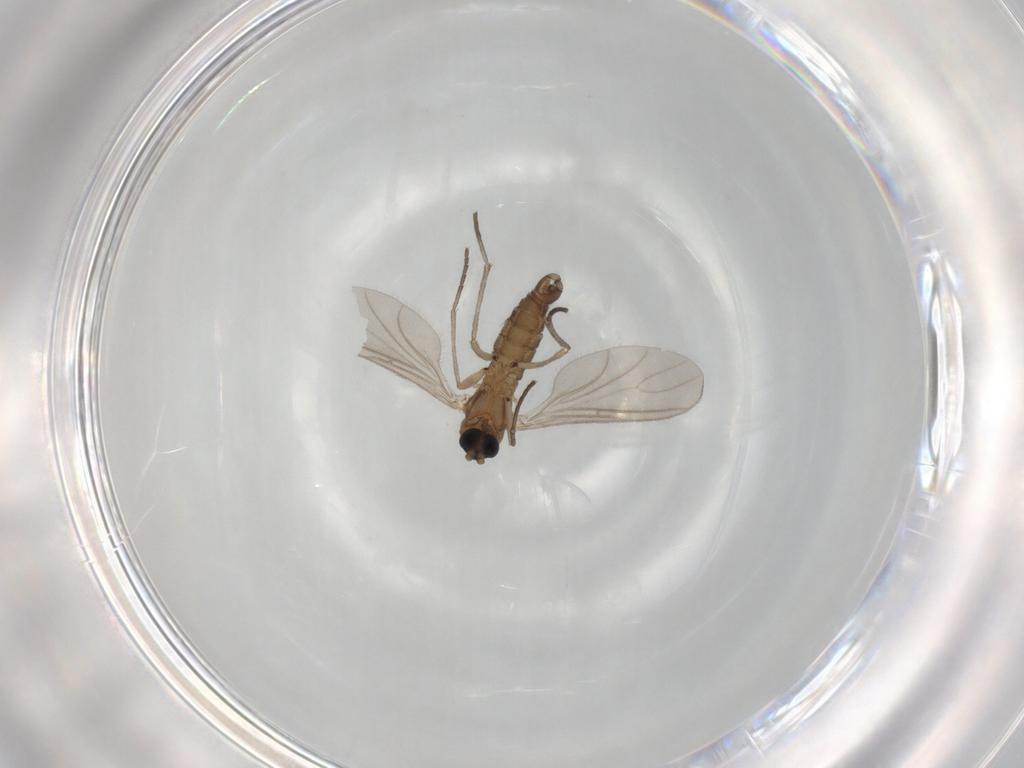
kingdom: Animalia
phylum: Arthropoda
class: Insecta
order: Diptera
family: Sciaridae
